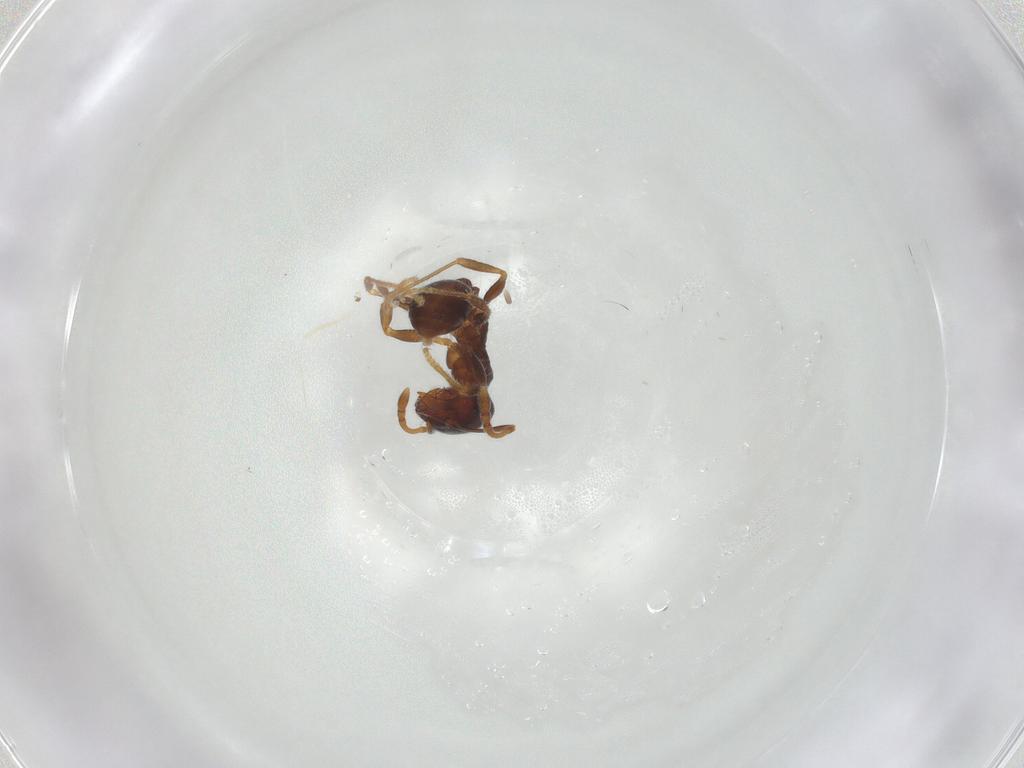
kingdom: Animalia
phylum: Arthropoda
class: Insecta
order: Hymenoptera
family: Formicidae
